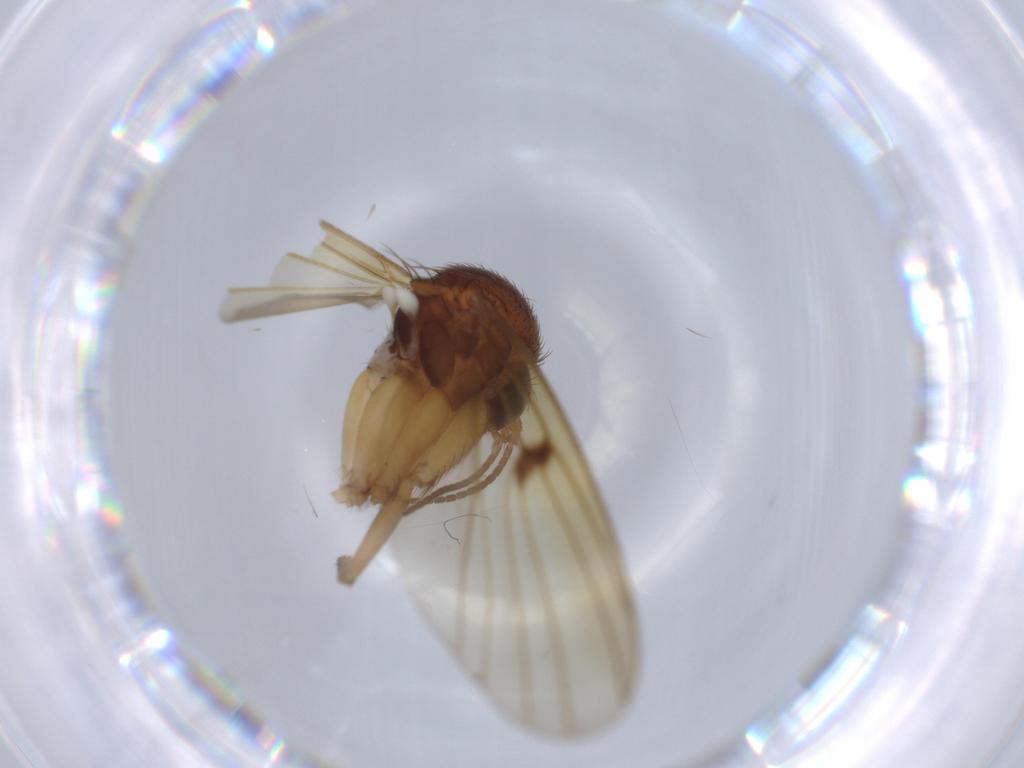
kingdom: Animalia
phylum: Arthropoda
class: Insecta
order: Diptera
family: Mycetophilidae
